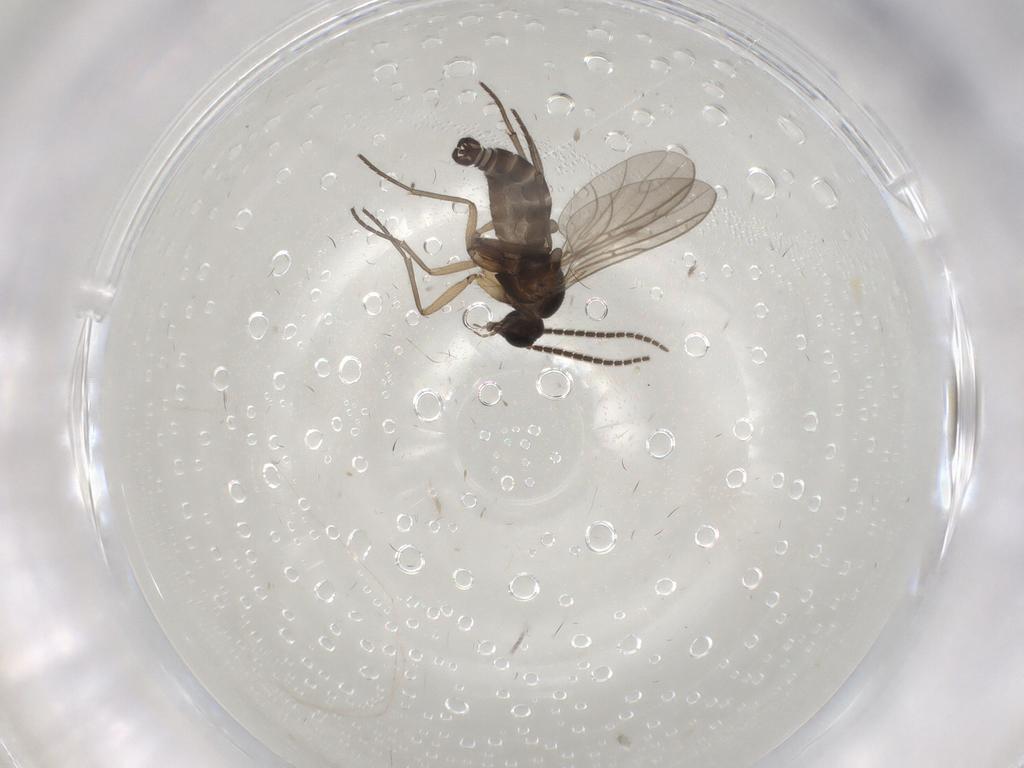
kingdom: Animalia
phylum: Arthropoda
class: Insecta
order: Diptera
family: Sciaridae
